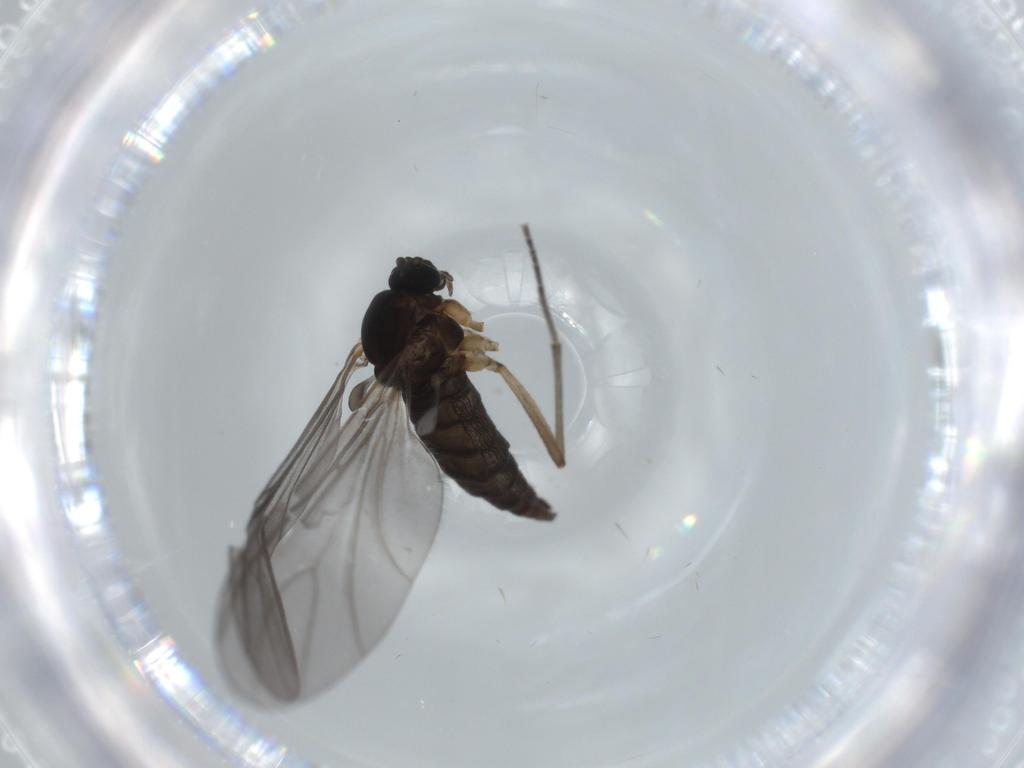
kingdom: Animalia
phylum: Arthropoda
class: Insecta
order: Diptera
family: Sciaridae
